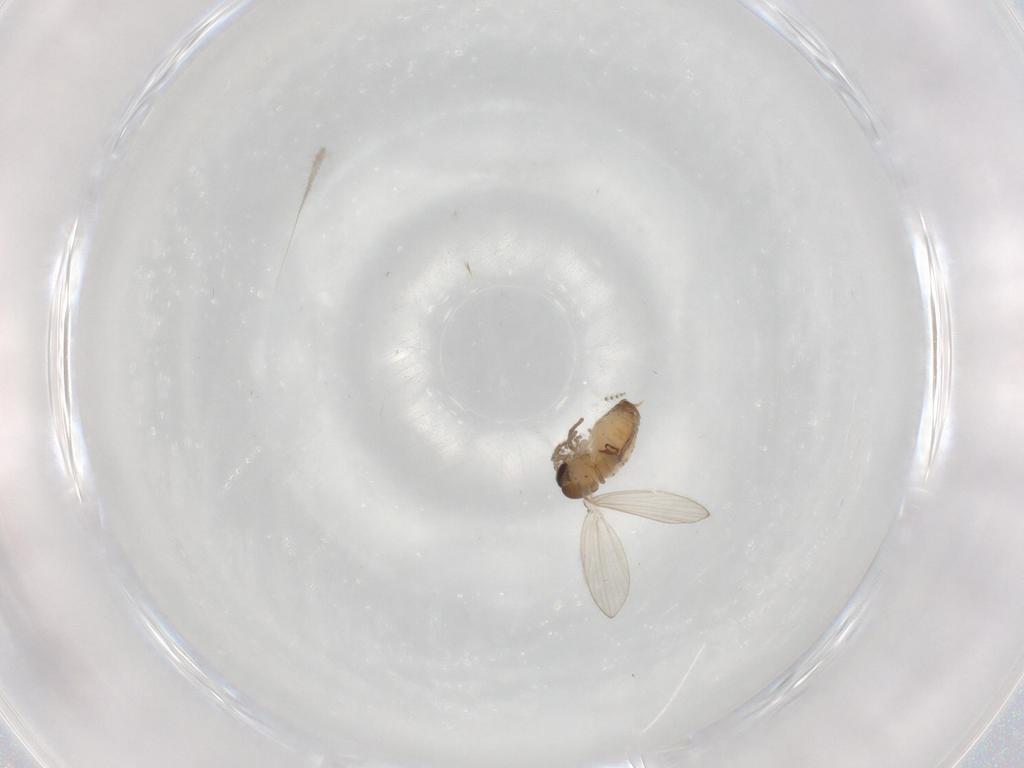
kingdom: Animalia
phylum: Arthropoda
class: Insecta
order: Diptera
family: Psychodidae
